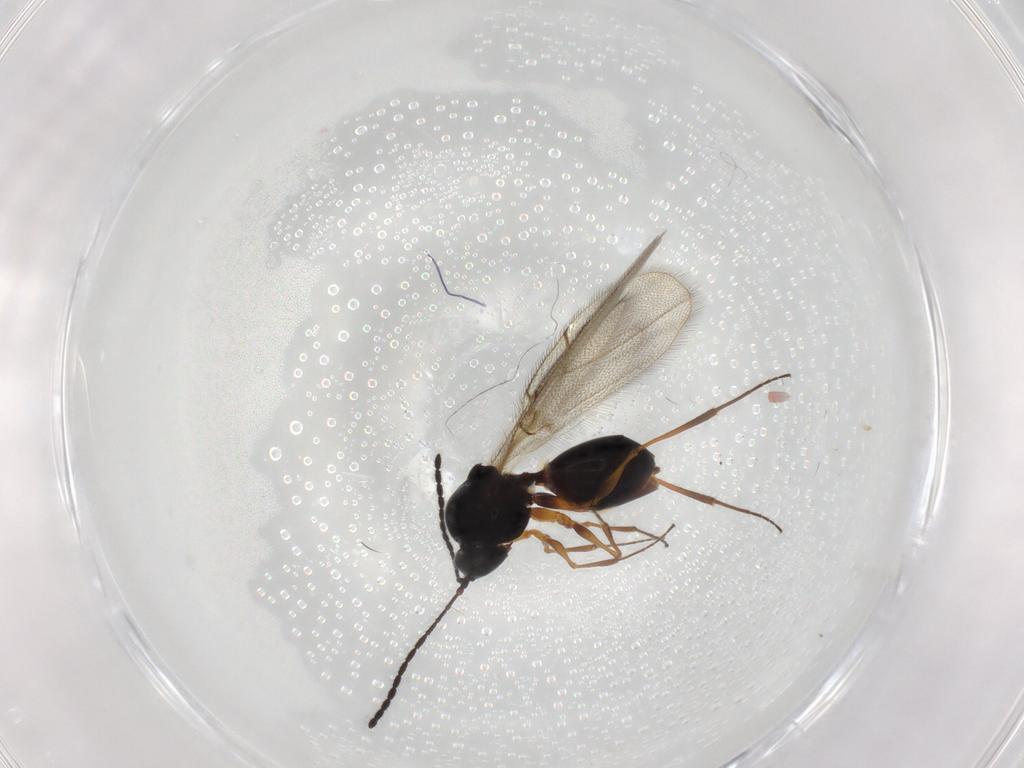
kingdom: Animalia
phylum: Arthropoda
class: Insecta
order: Hymenoptera
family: Figitidae
